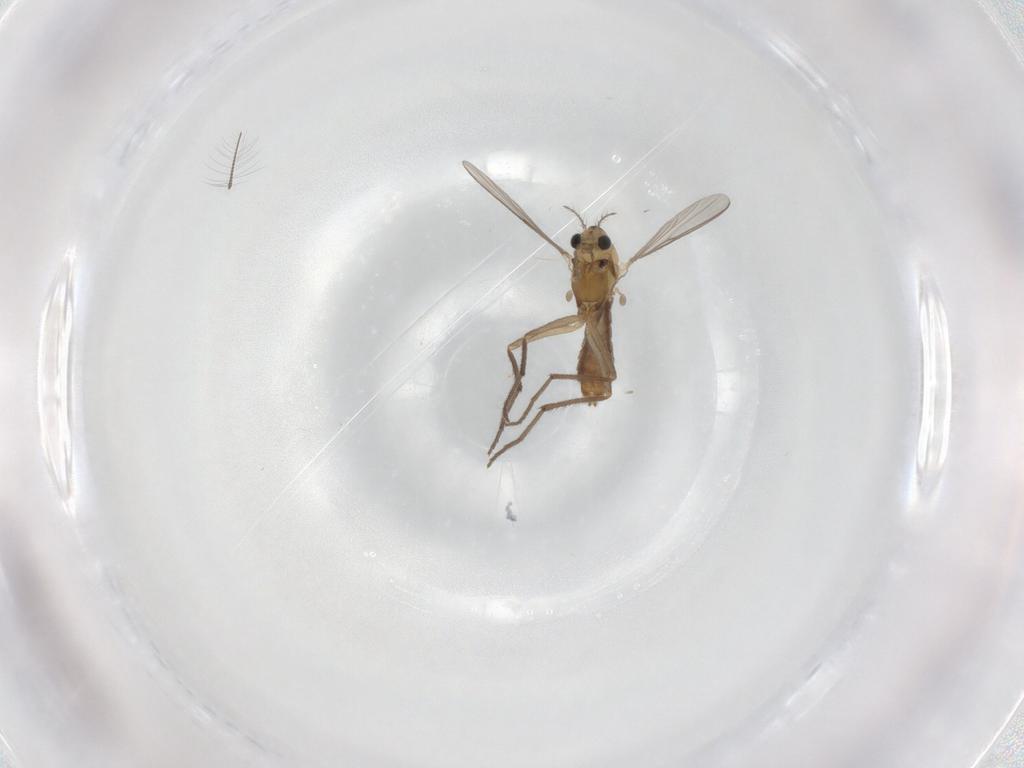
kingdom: Animalia
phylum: Arthropoda
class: Insecta
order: Diptera
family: Chironomidae
